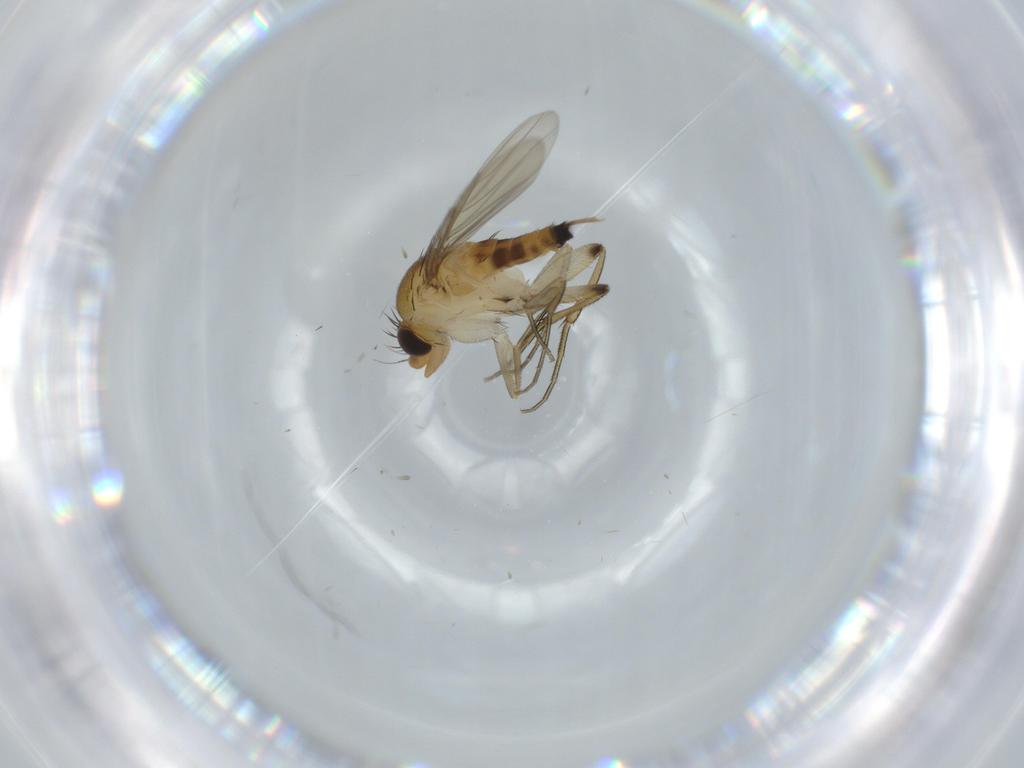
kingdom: Animalia
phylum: Arthropoda
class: Insecta
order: Diptera
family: Phoridae
